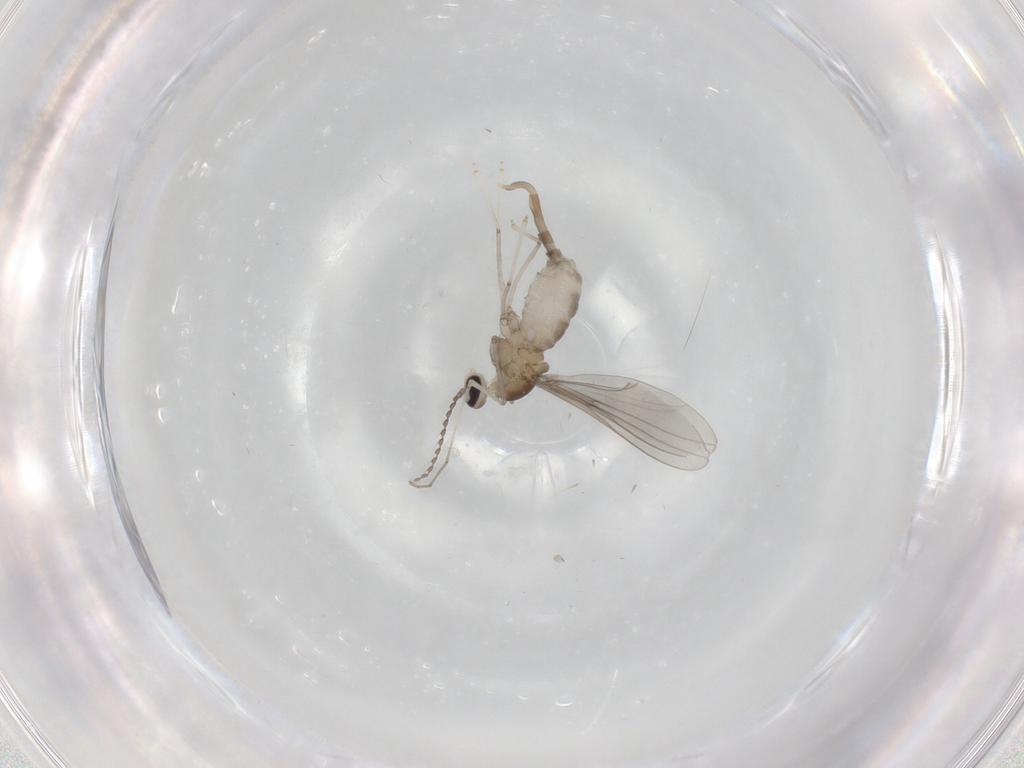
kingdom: Animalia
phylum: Arthropoda
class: Insecta
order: Diptera
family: Cecidomyiidae
